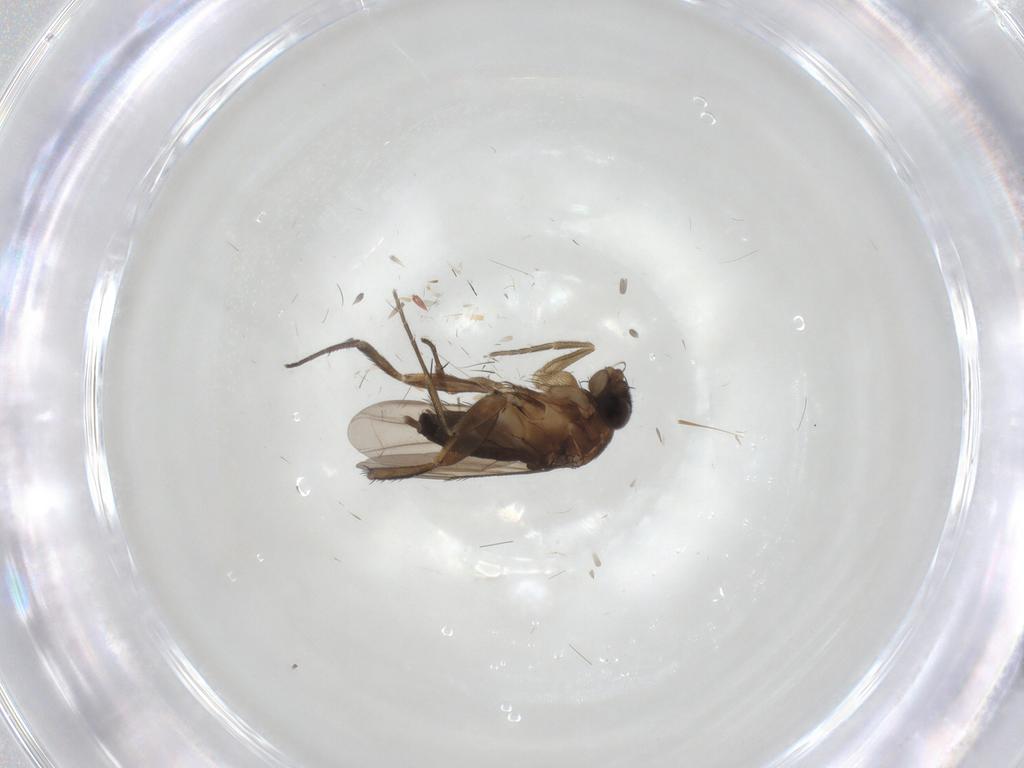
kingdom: Animalia
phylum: Arthropoda
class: Insecta
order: Diptera
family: Phoridae
